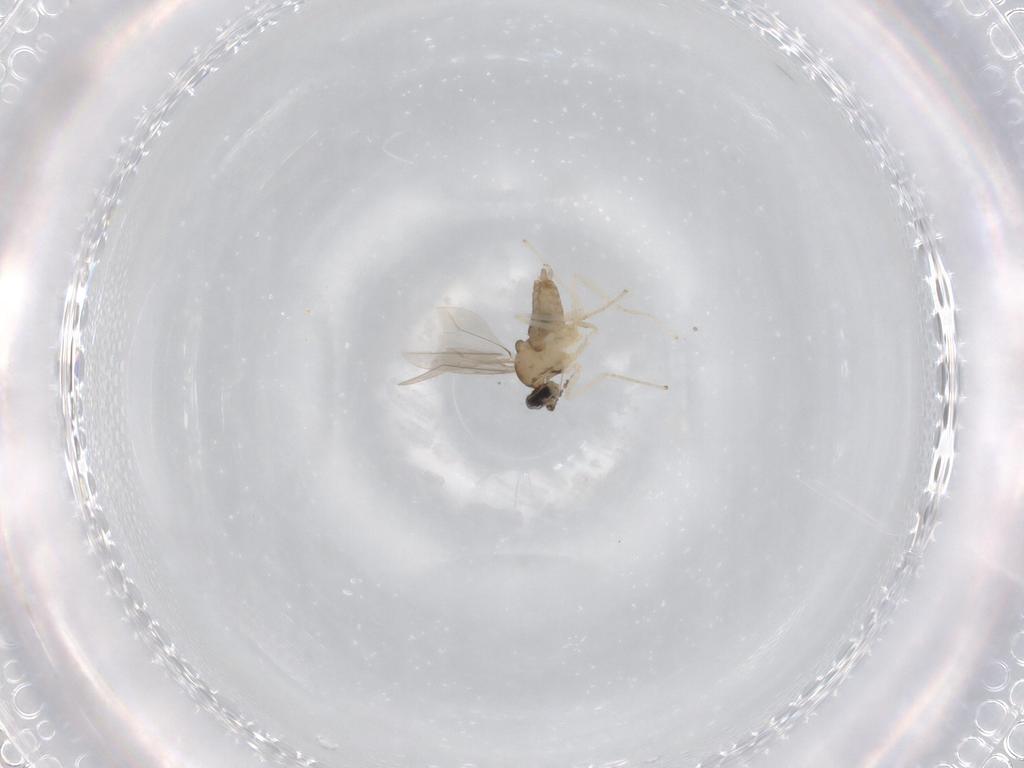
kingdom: Animalia
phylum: Arthropoda
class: Insecta
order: Diptera
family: Cecidomyiidae
